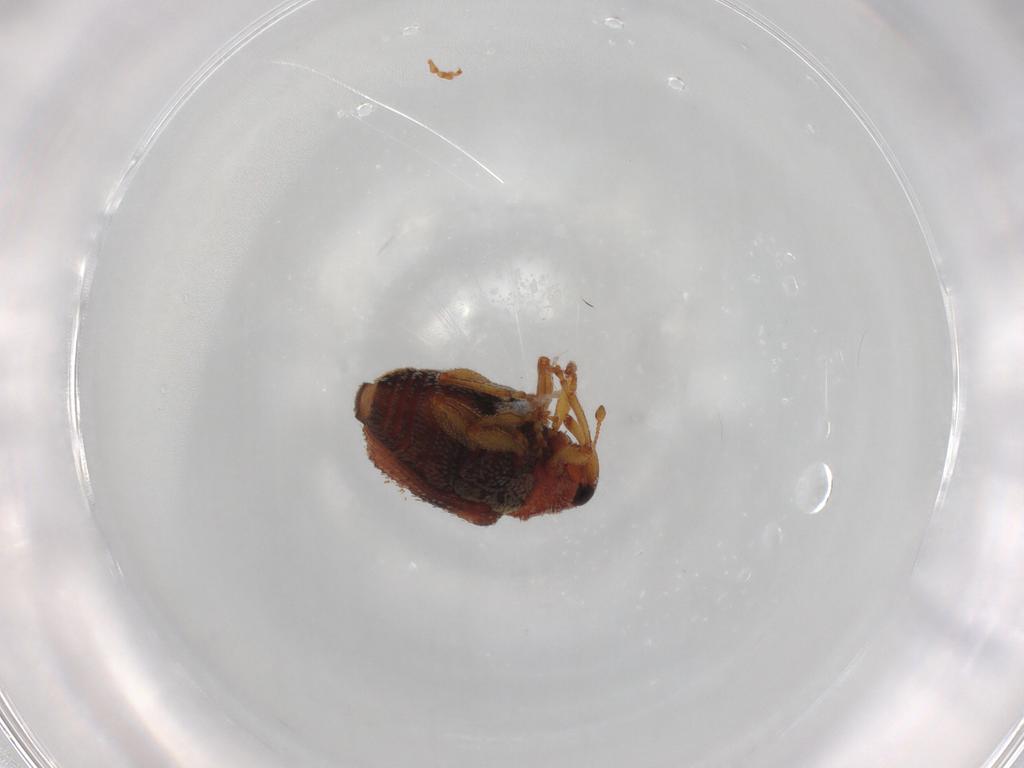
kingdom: Animalia
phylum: Arthropoda
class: Insecta
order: Coleoptera
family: Curculionidae
